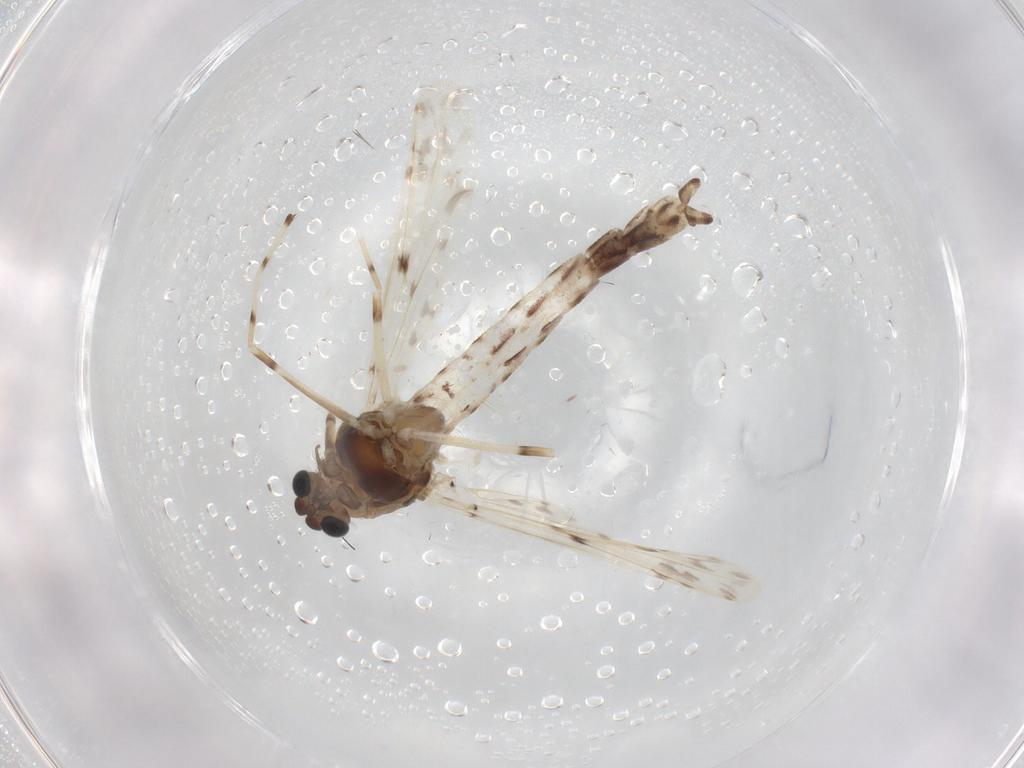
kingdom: Animalia
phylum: Arthropoda
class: Insecta
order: Diptera
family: Chironomidae
